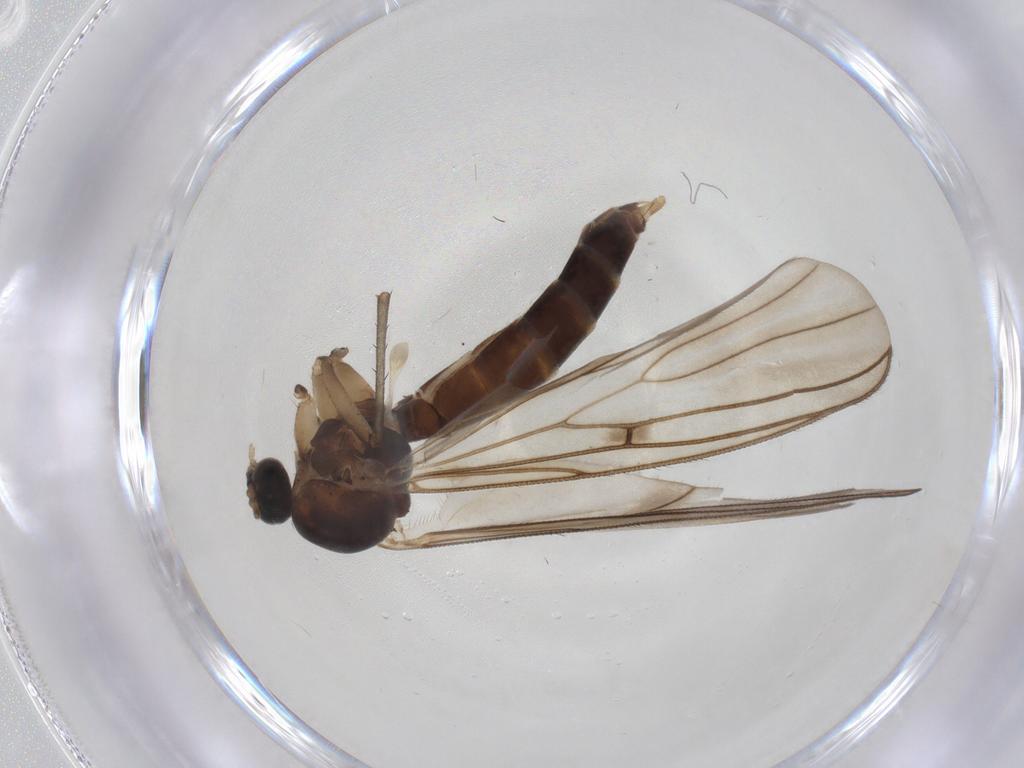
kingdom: Animalia
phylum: Arthropoda
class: Insecta
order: Diptera
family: Mycetophilidae
